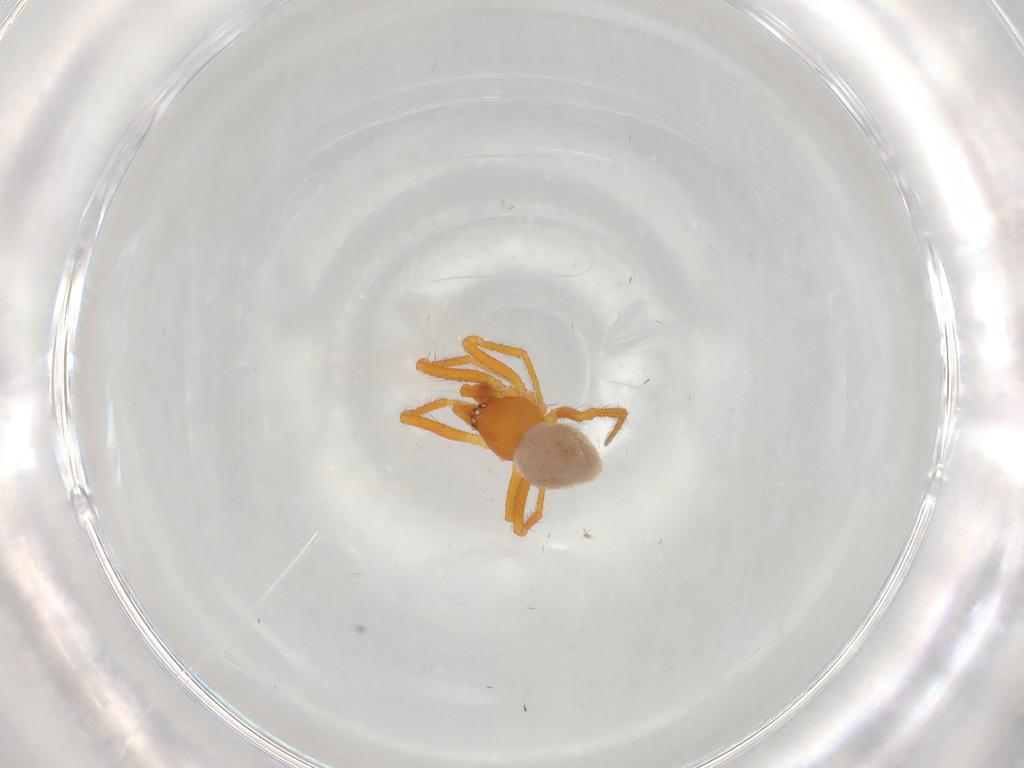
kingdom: Animalia
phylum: Arthropoda
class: Arachnida
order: Araneae
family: Theridiidae
